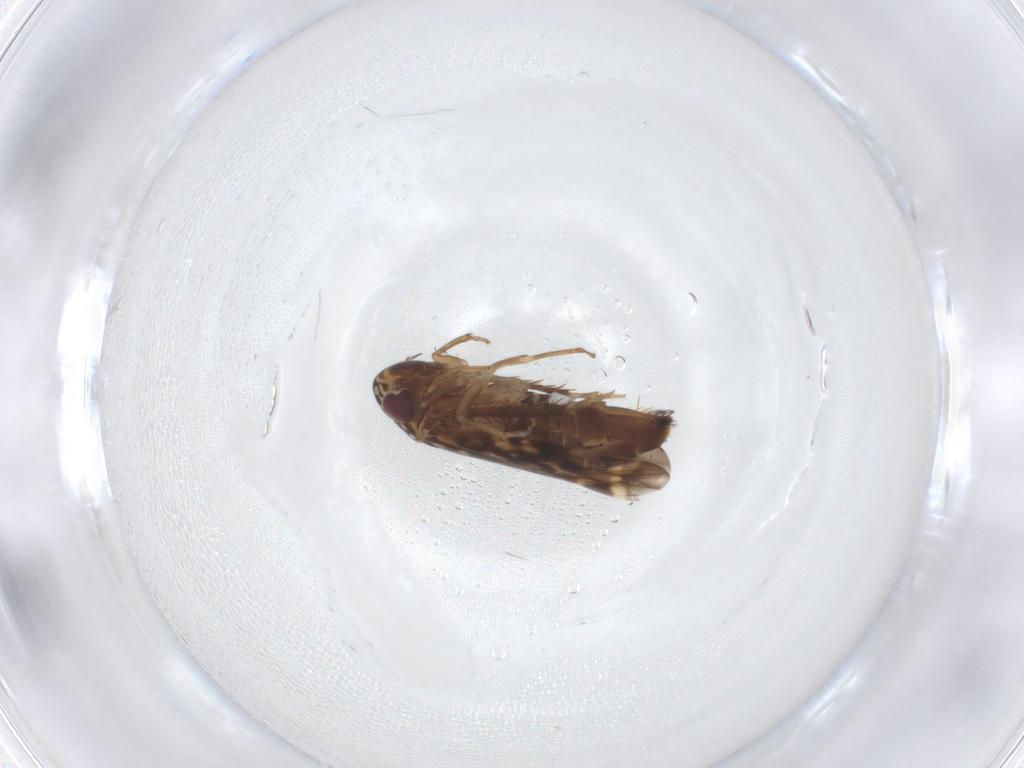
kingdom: Animalia
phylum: Arthropoda
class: Insecta
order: Hemiptera
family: Cicadellidae
